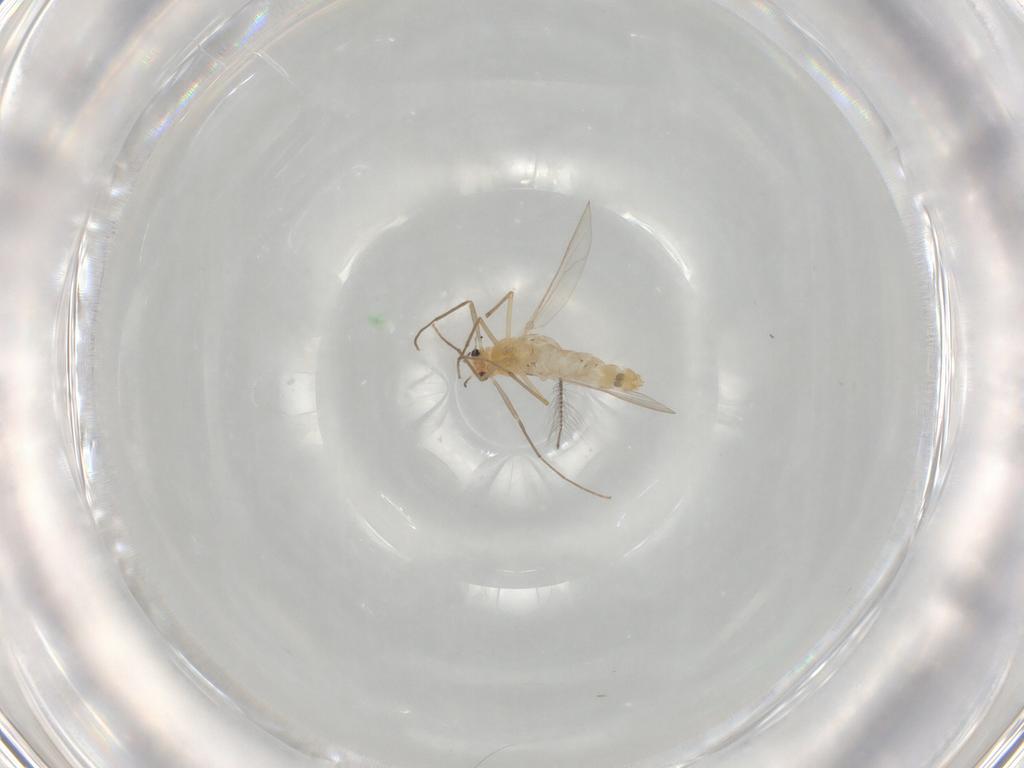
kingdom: Animalia
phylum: Arthropoda
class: Insecta
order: Diptera
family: Chironomidae
